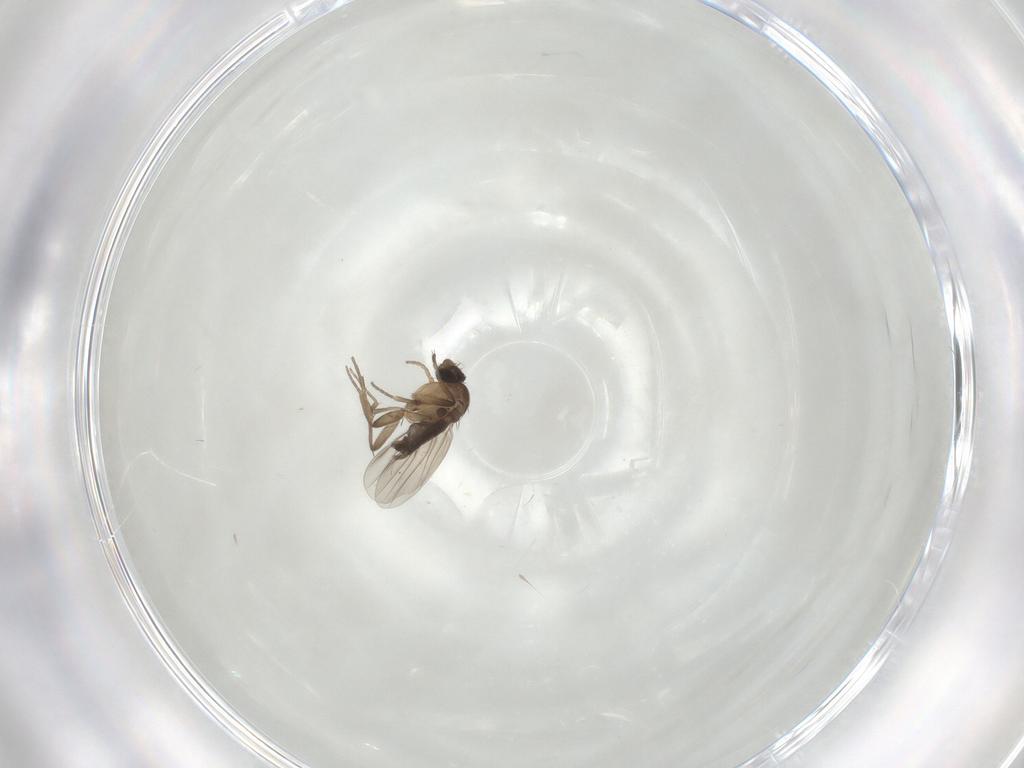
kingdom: Animalia
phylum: Arthropoda
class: Insecta
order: Diptera
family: Phoridae
